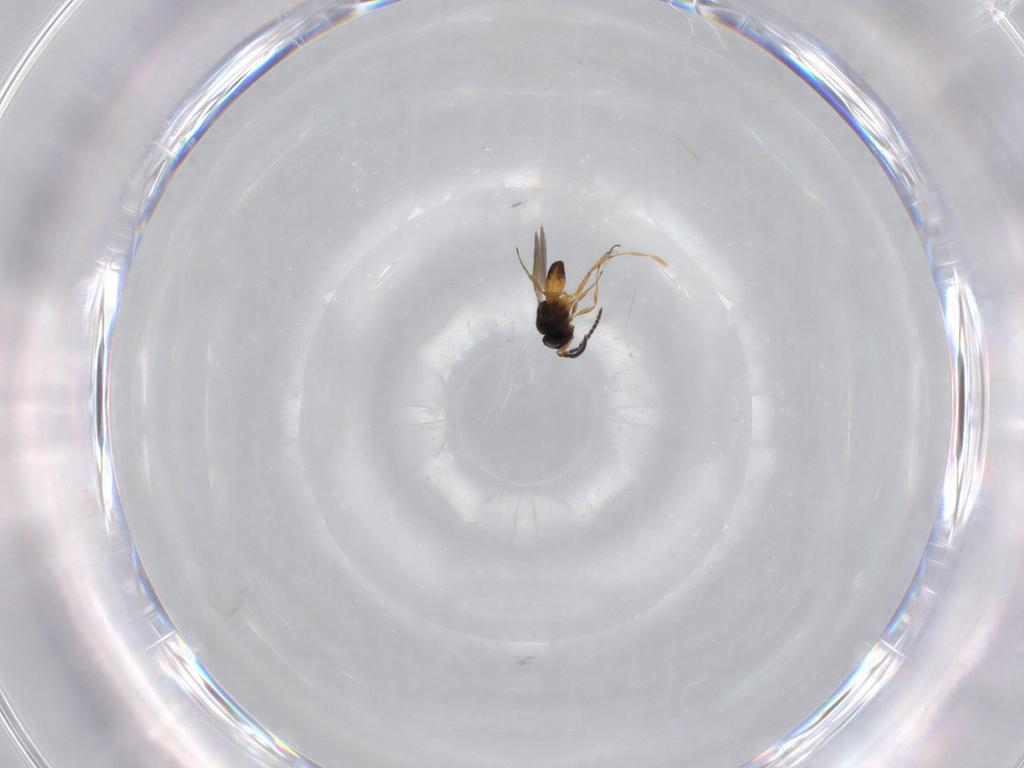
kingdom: Animalia
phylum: Arthropoda
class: Insecta
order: Hymenoptera
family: Scelionidae
